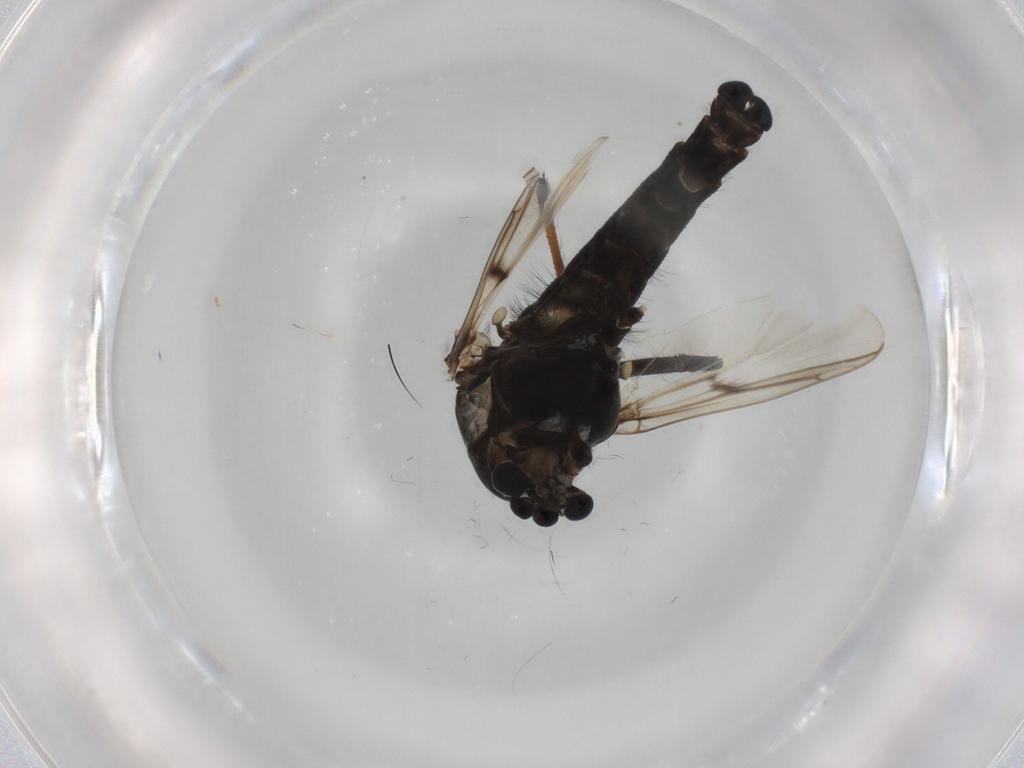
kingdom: Animalia
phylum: Arthropoda
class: Insecta
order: Diptera
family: Chironomidae
